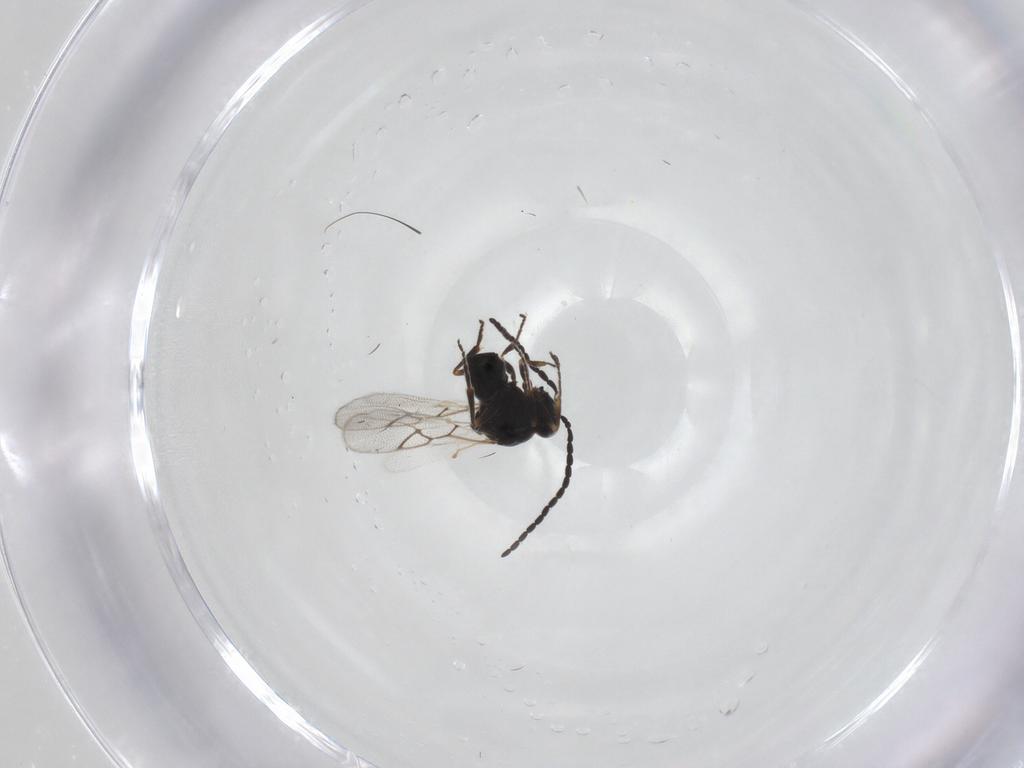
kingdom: Animalia
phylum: Arthropoda
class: Insecta
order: Hymenoptera
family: Figitidae
